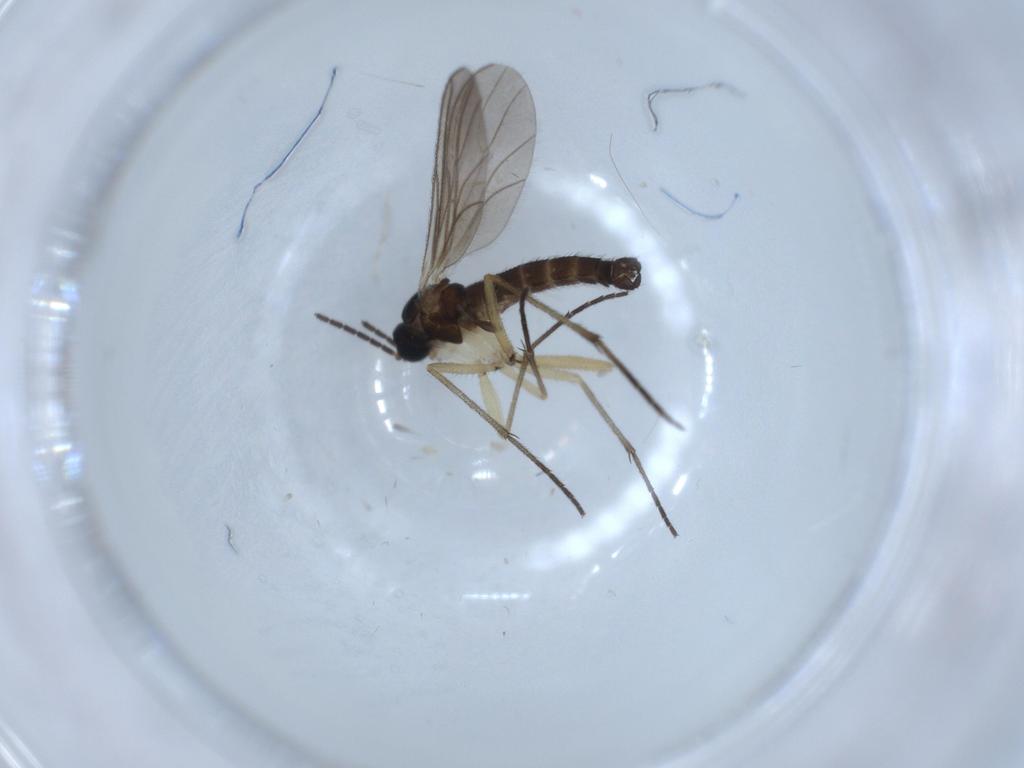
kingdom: Animalia
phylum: Arthropoda
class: Insecta
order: Diptera
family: Sciaridae
